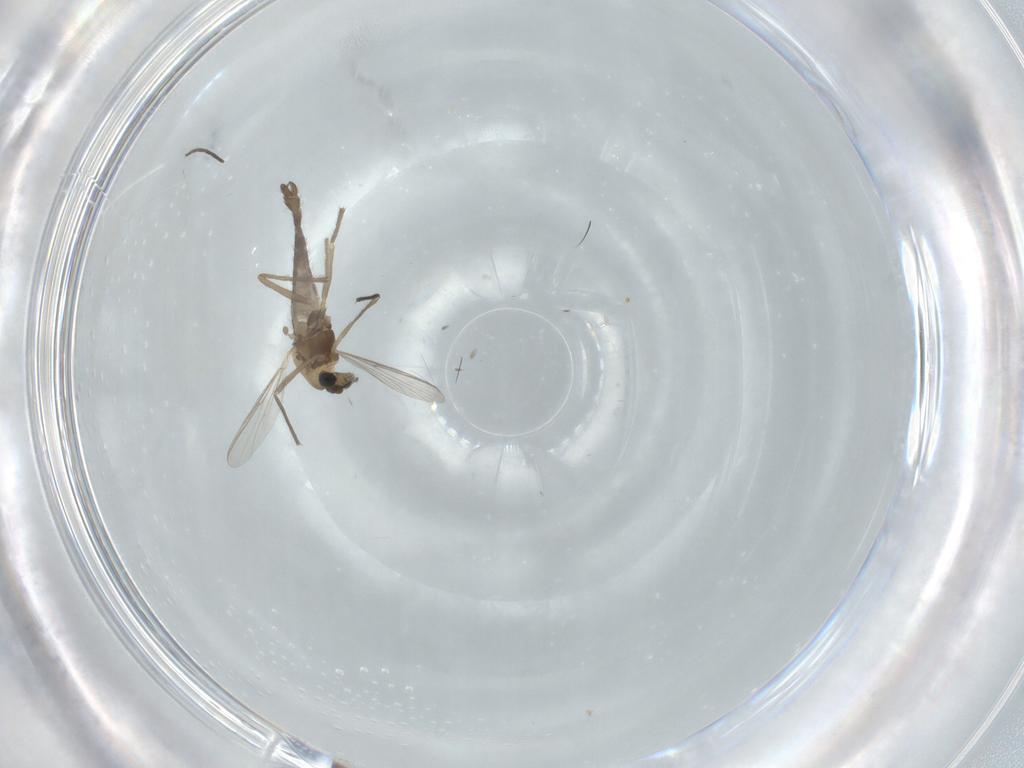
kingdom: Animalia
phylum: Arthropoda
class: Insecta
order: Diptera
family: Chironomidae
